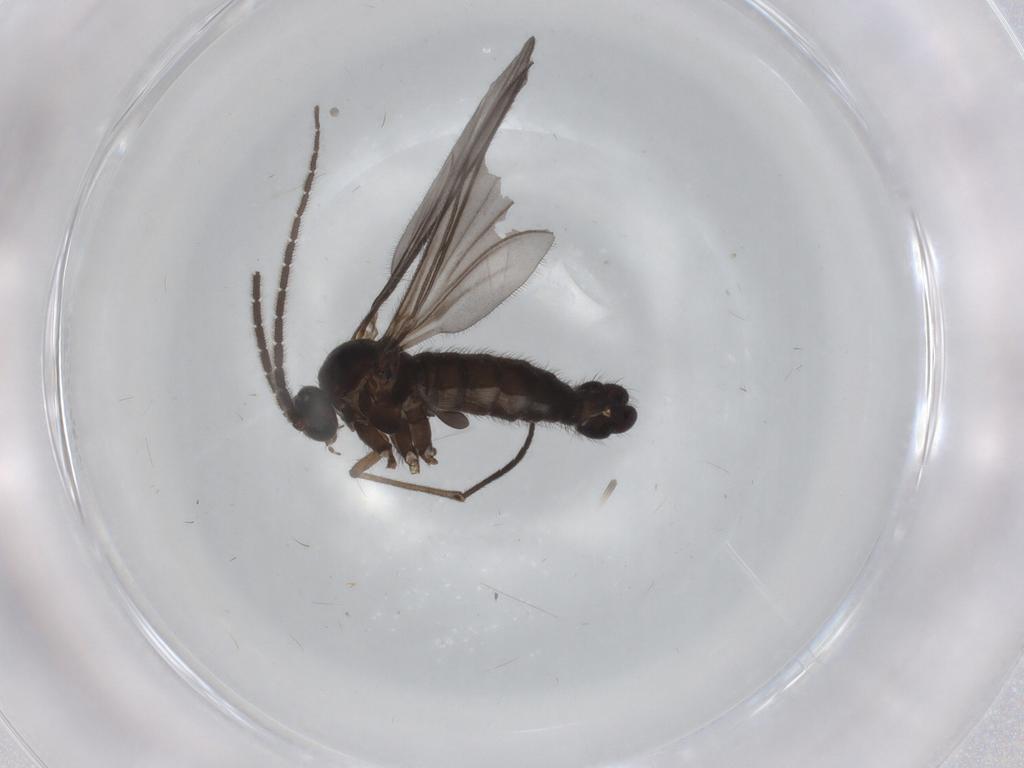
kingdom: Animalia
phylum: Arthropoda
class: Insecta
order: Diptera
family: Sciaridae
